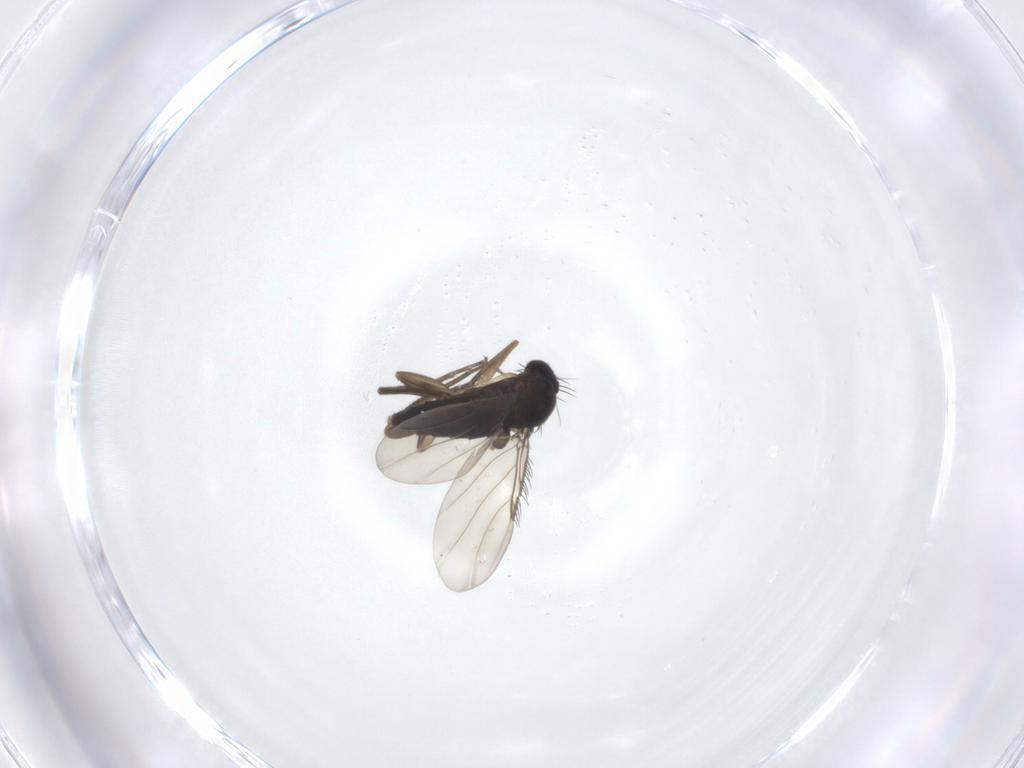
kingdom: Animalia
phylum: Arthropoda
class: Insecta
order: Diptera
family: Phoridae
